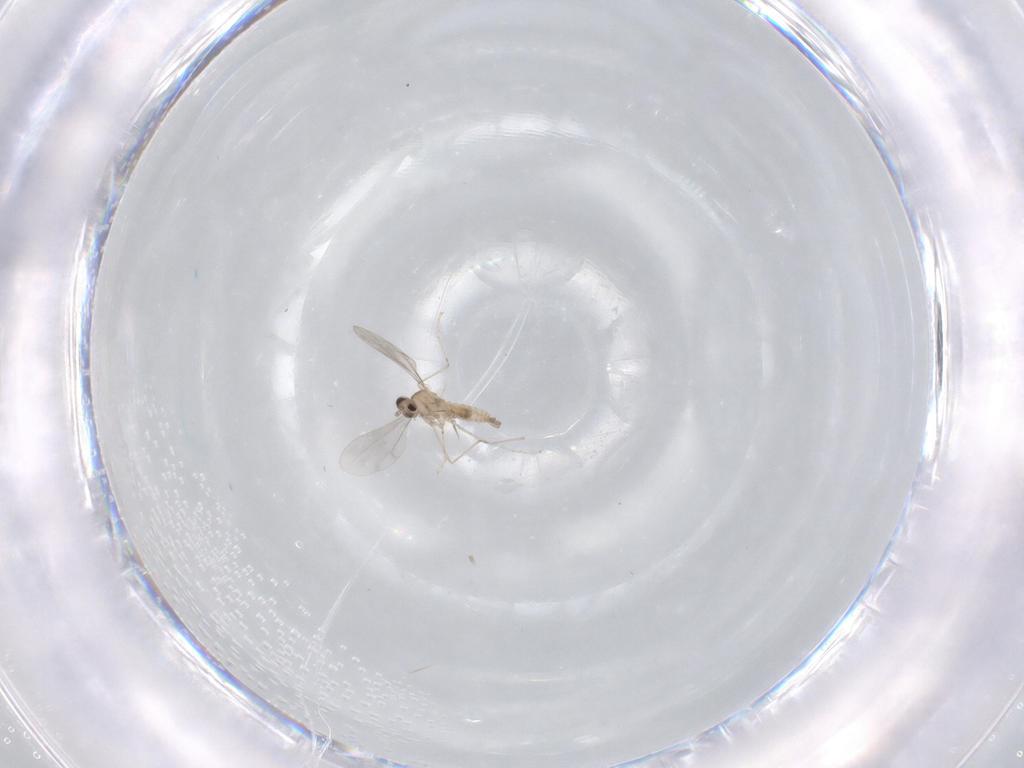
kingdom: Animalia
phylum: Arthropoda
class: Insecta
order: Diptera
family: Cecidomyiidae
